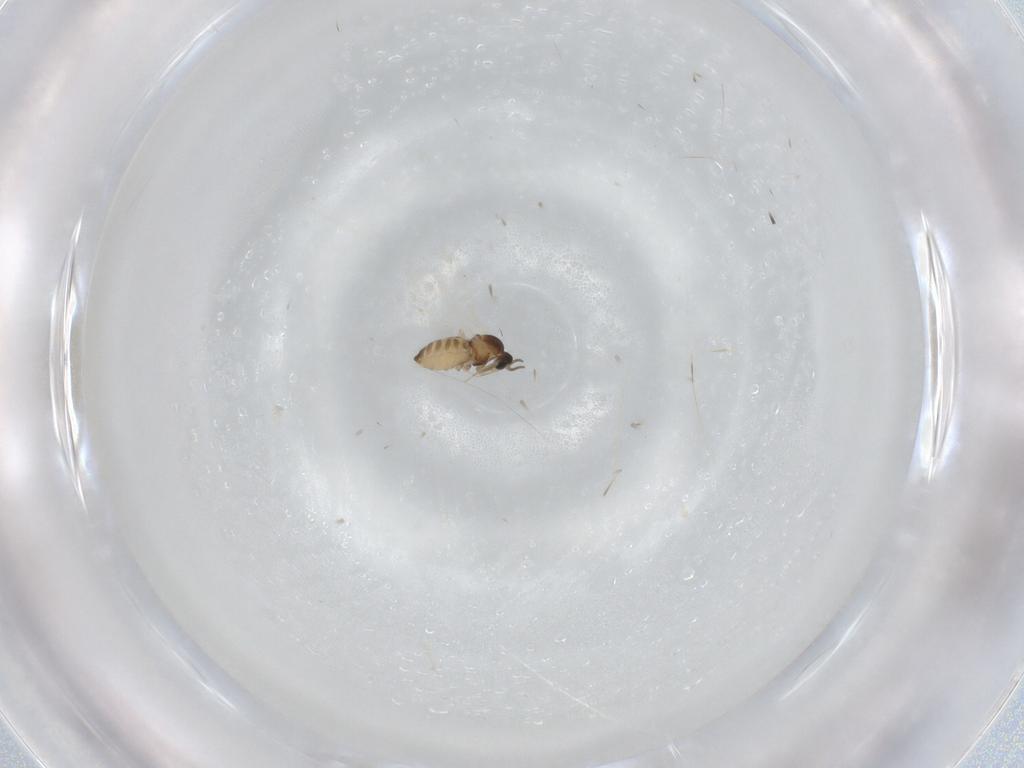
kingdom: Animalia
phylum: Arthropoda
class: Insecta
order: Diptera
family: Cecidomyiidae
